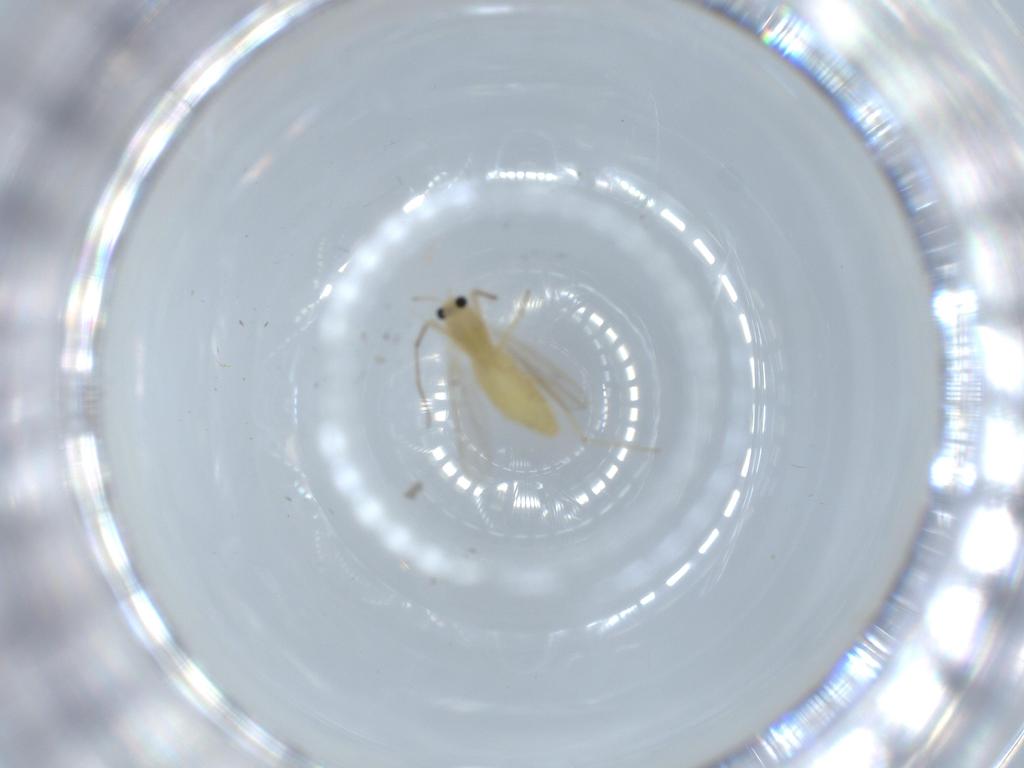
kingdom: Animalia
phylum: Arthropoda
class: Insecta
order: Diptera
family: Chironomidae
